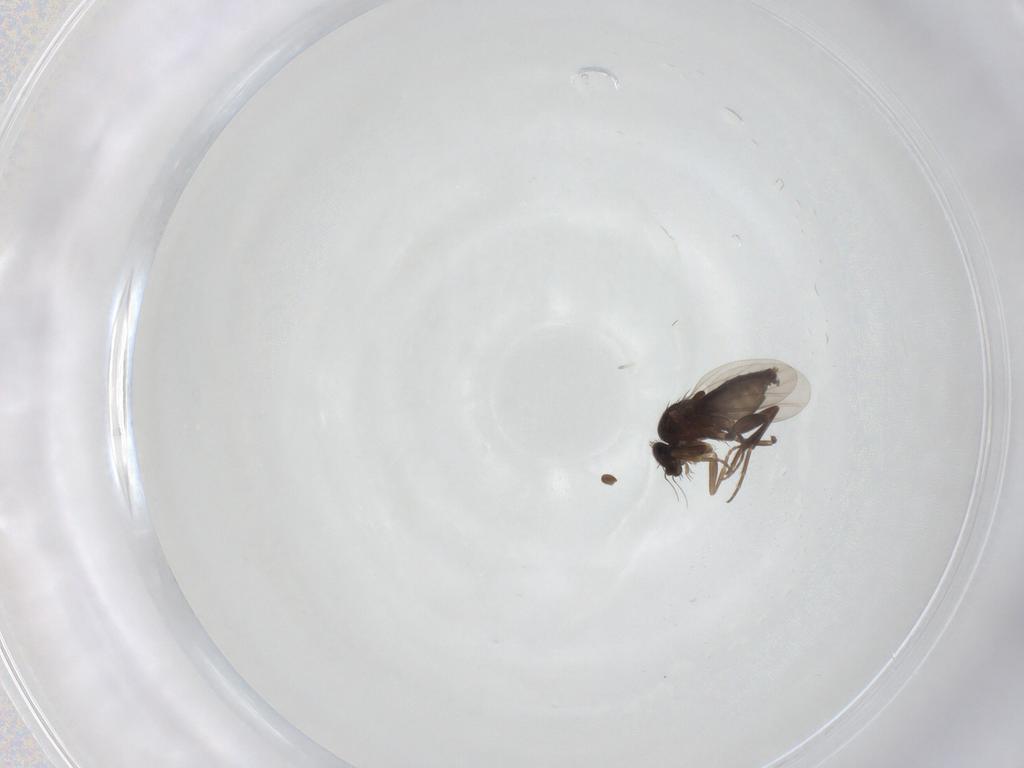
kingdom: Animalia
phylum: Arthropoda
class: Insecta
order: Diptera
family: Phoridae
